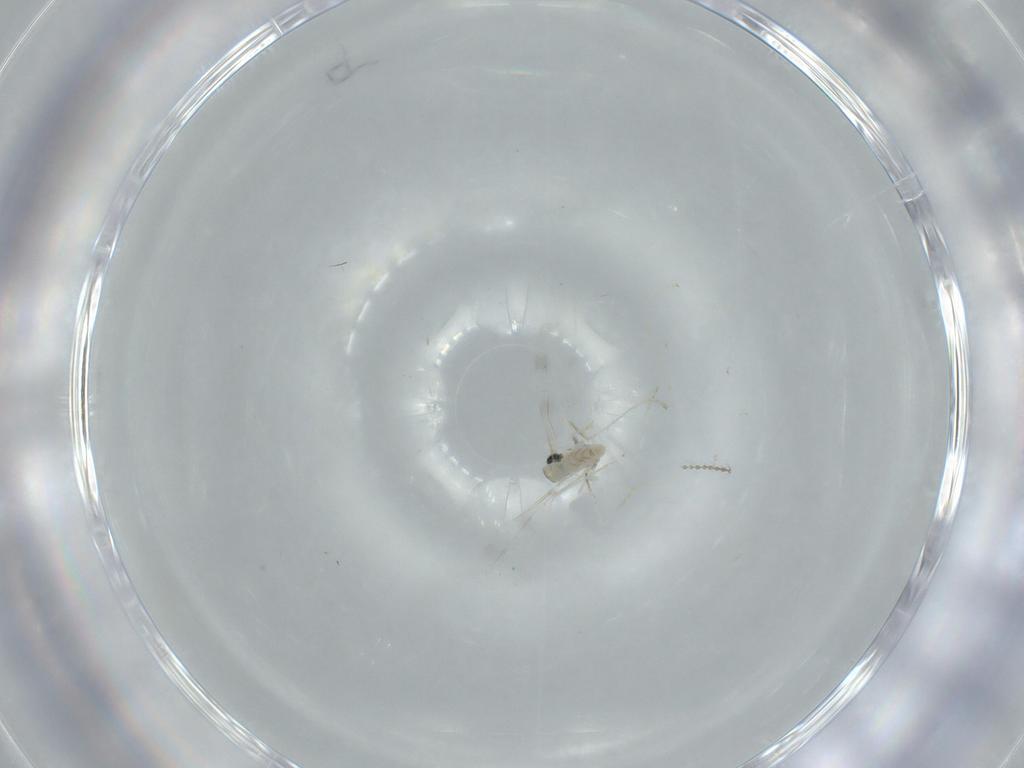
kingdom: Animalia
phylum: Arthropoda
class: Insecta
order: Diptera
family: Cecidomyiidae
